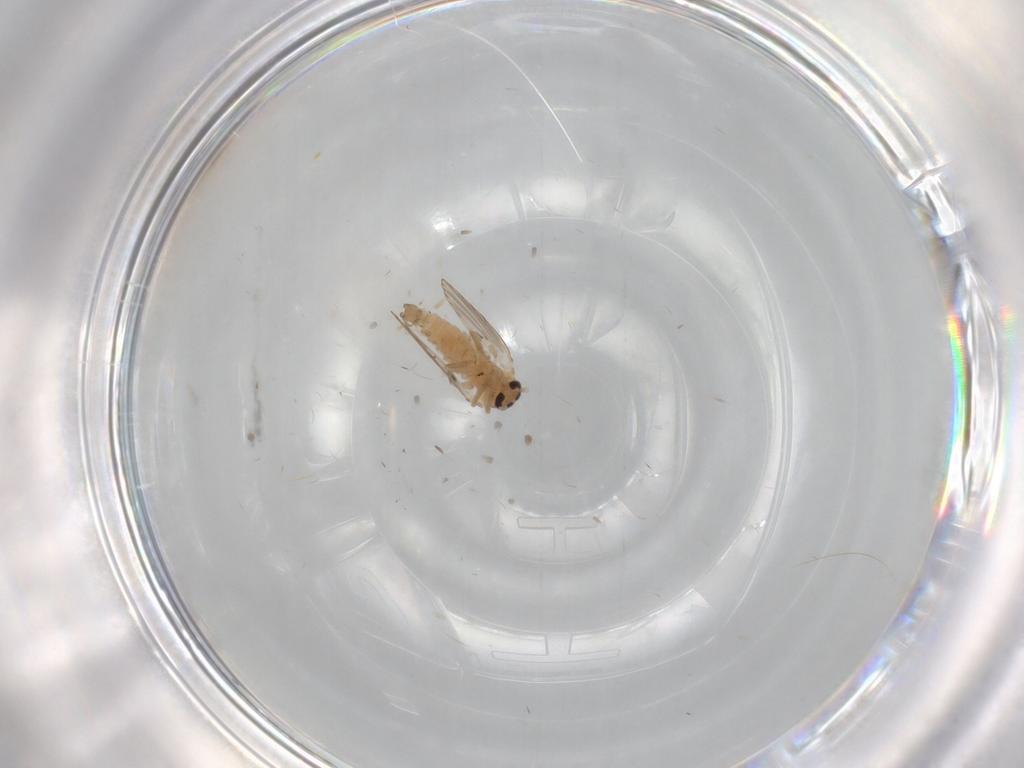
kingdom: Animalia
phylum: Arthropoda
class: Insecta
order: Diptera
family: Psychodidae
